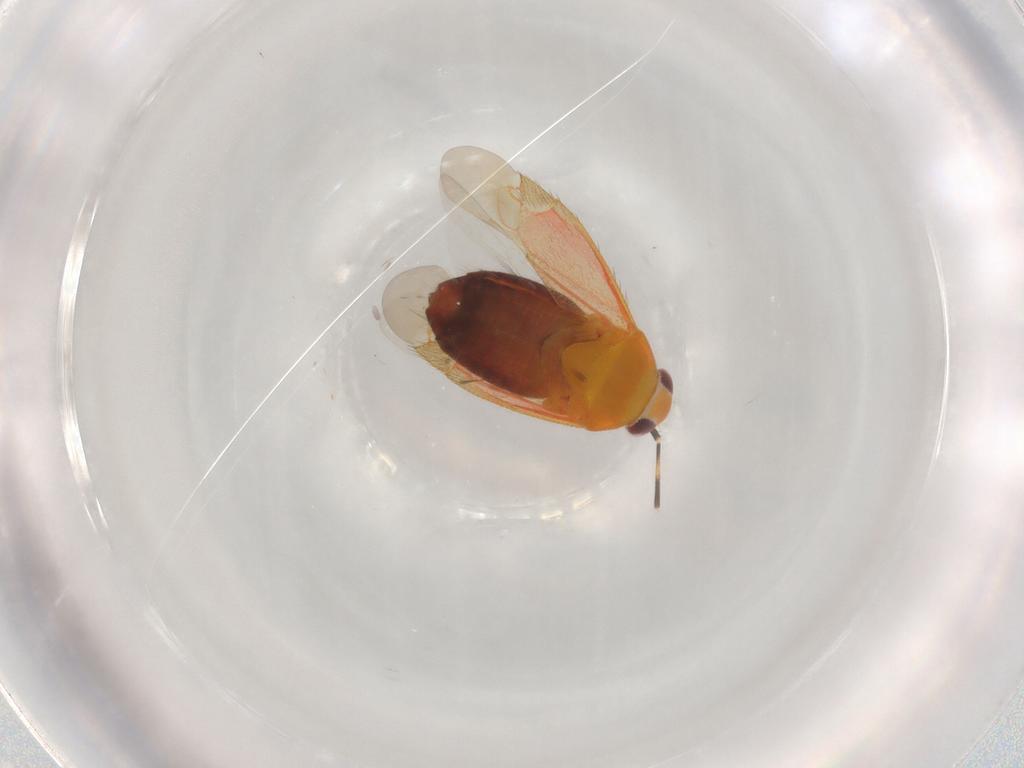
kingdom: Animalia
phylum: Arthropoda
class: Insecta
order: Hemiptera
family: Miridae
